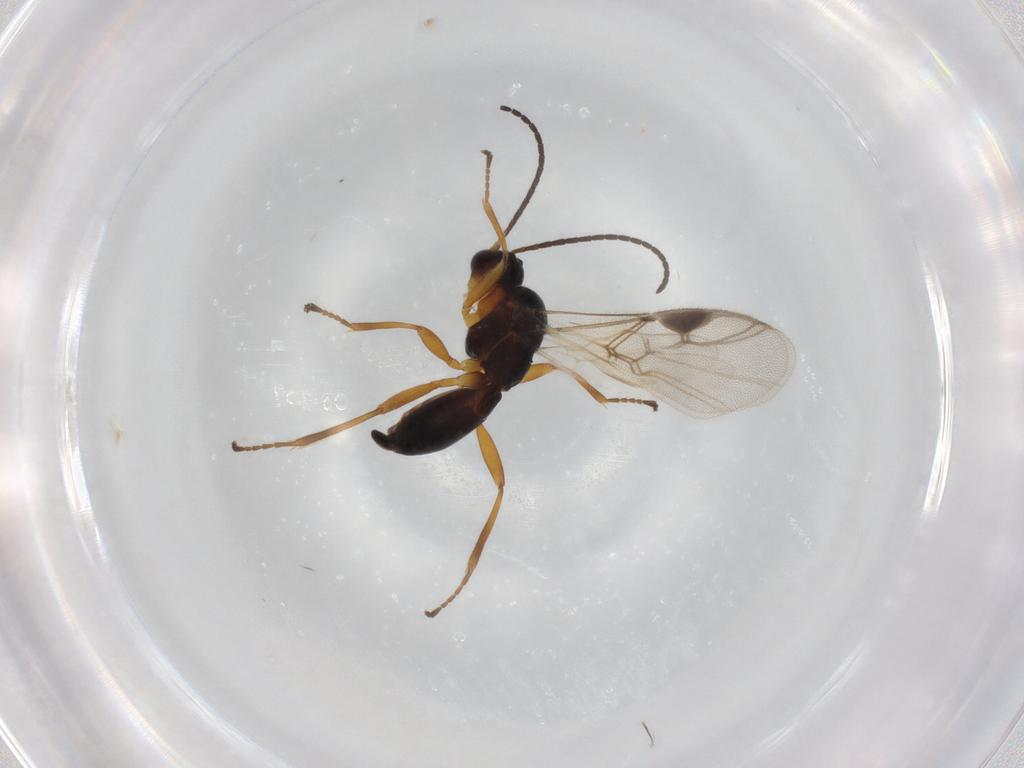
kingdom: Animalia
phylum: Arthropoda
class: Insecta
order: Hymenoptera
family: Braconidae
